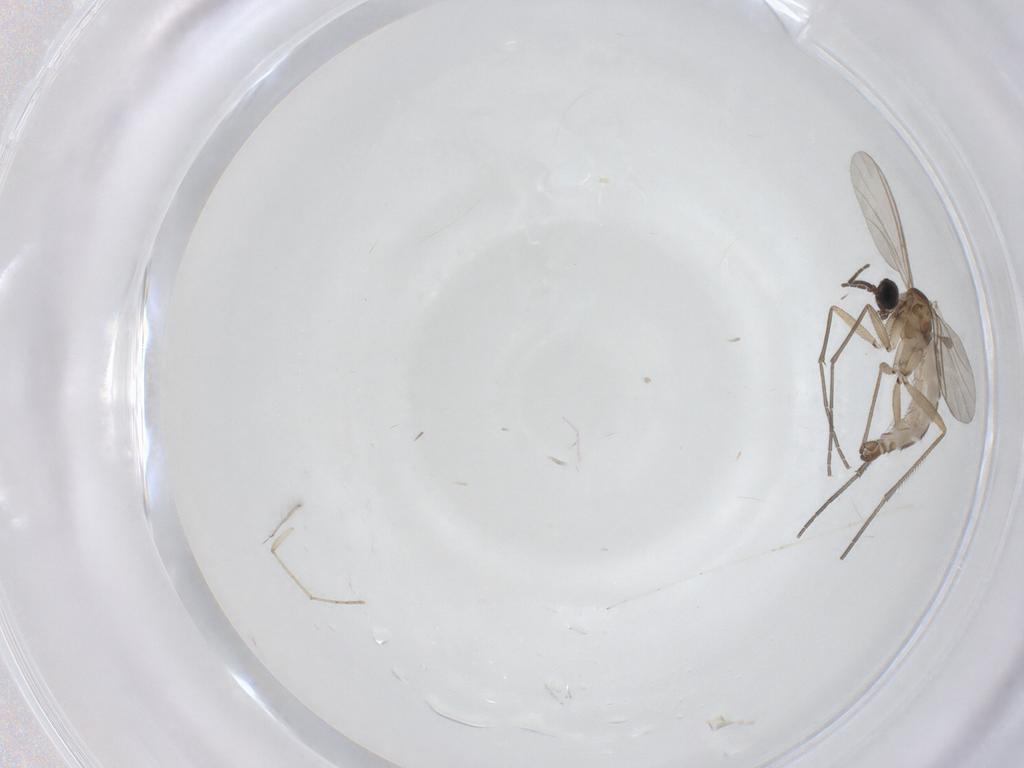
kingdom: Animalia
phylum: Arthropoda
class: Insecta
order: Diptera
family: Sciaridae
